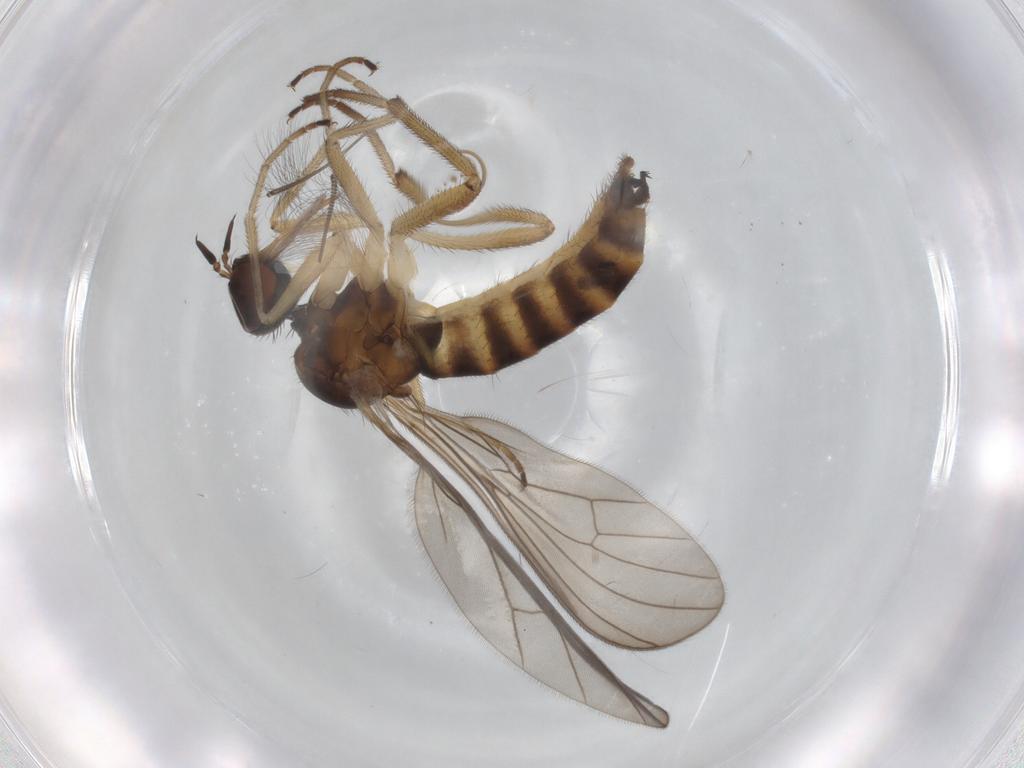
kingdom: Animalia
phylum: Arthropoda
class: Insecta
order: Diptera
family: Empididae
